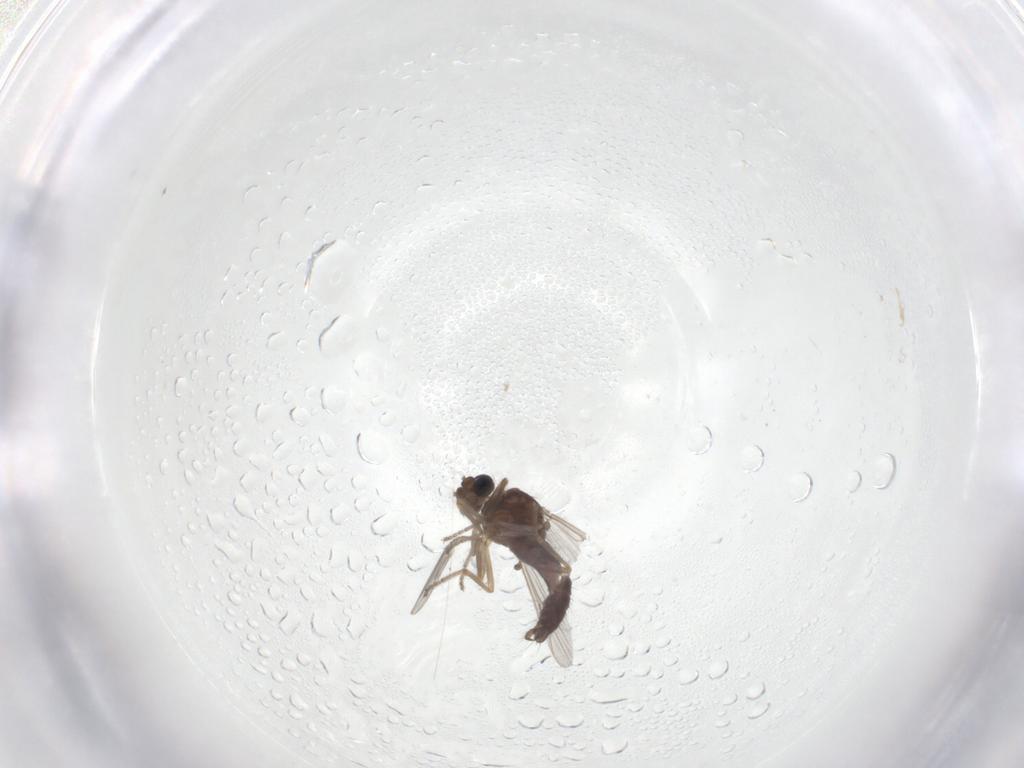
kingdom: Animalia
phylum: Arthropoda
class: Insecta
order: Diptera
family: Ceratopogonidae
